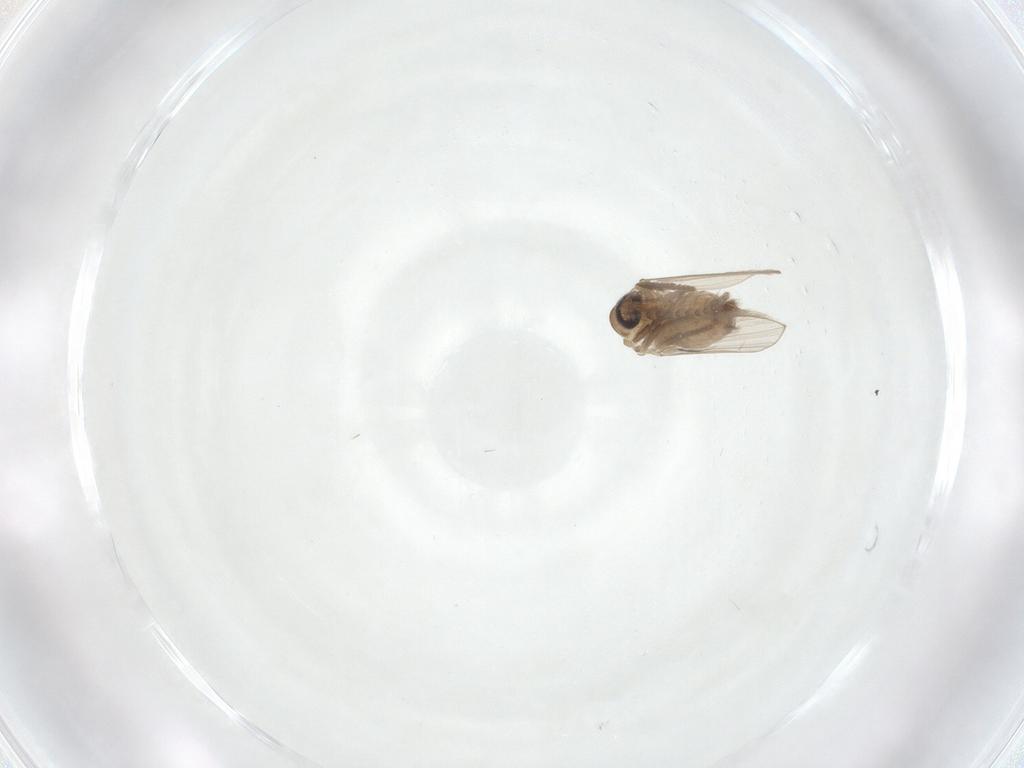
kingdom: Animalia
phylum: Arthropoda
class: Insecta
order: Diptera
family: Psychodidae
